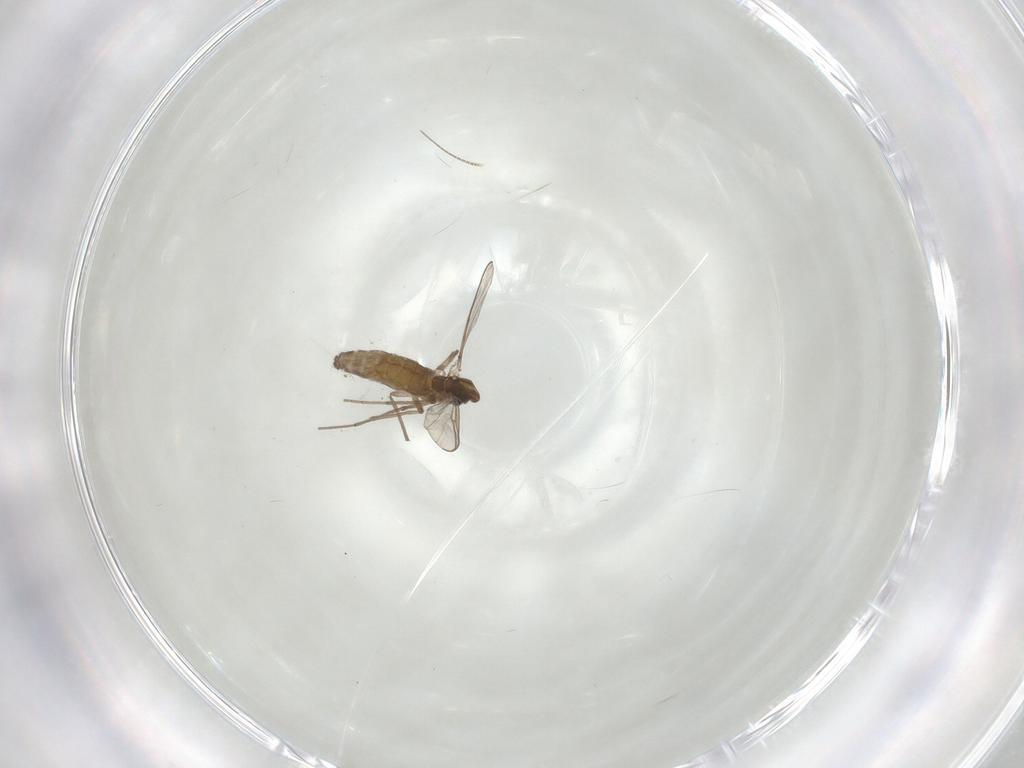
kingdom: Animalia
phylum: Arthropoda
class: Insecta
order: Diptera
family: Chironomidae
